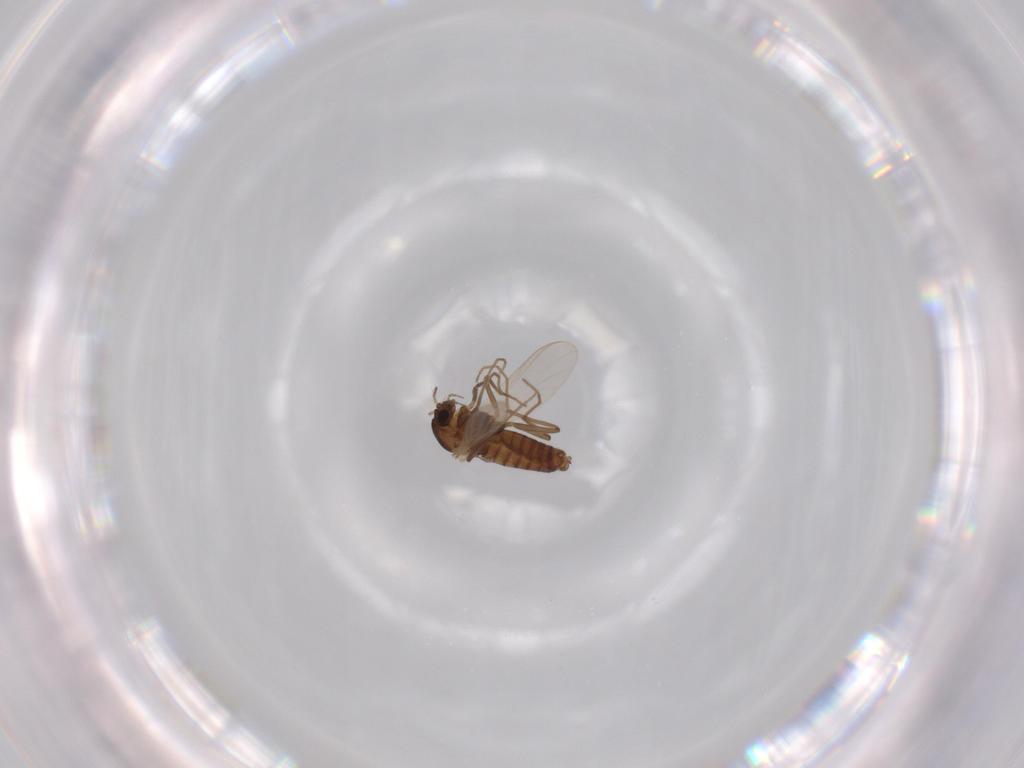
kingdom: Animalia
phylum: Arthropoda
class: Insecta
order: Diptera
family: Chironomidae
